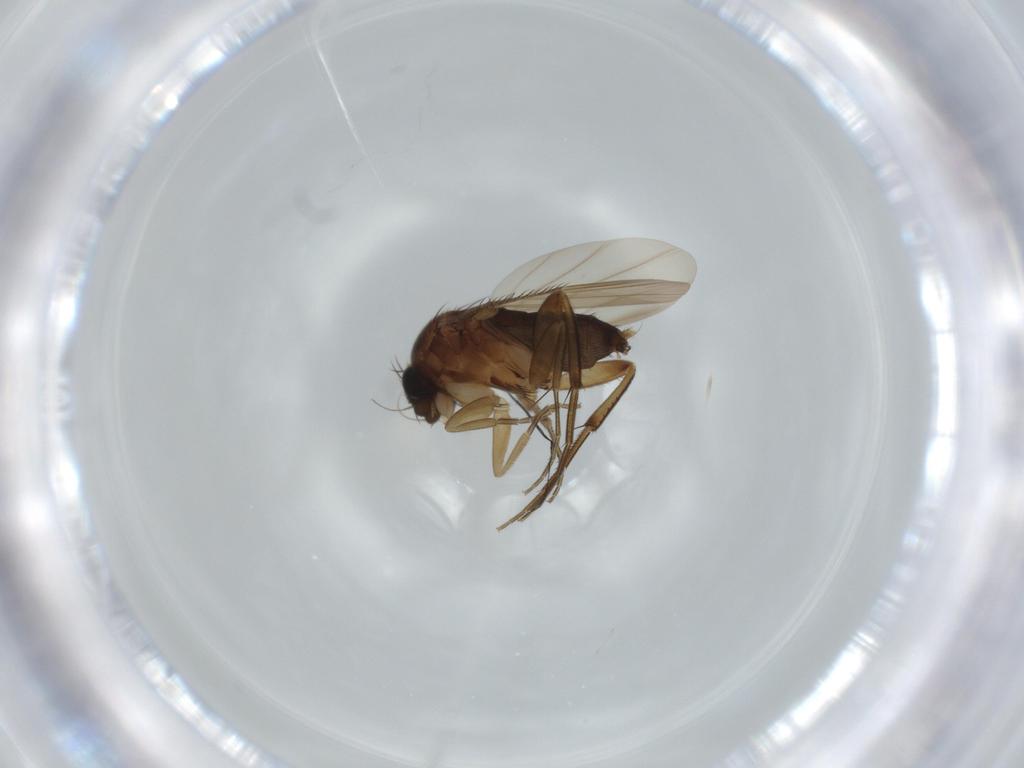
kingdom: Animalia
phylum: Arthropoda
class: Insecta
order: Diptera
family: Phoridae
